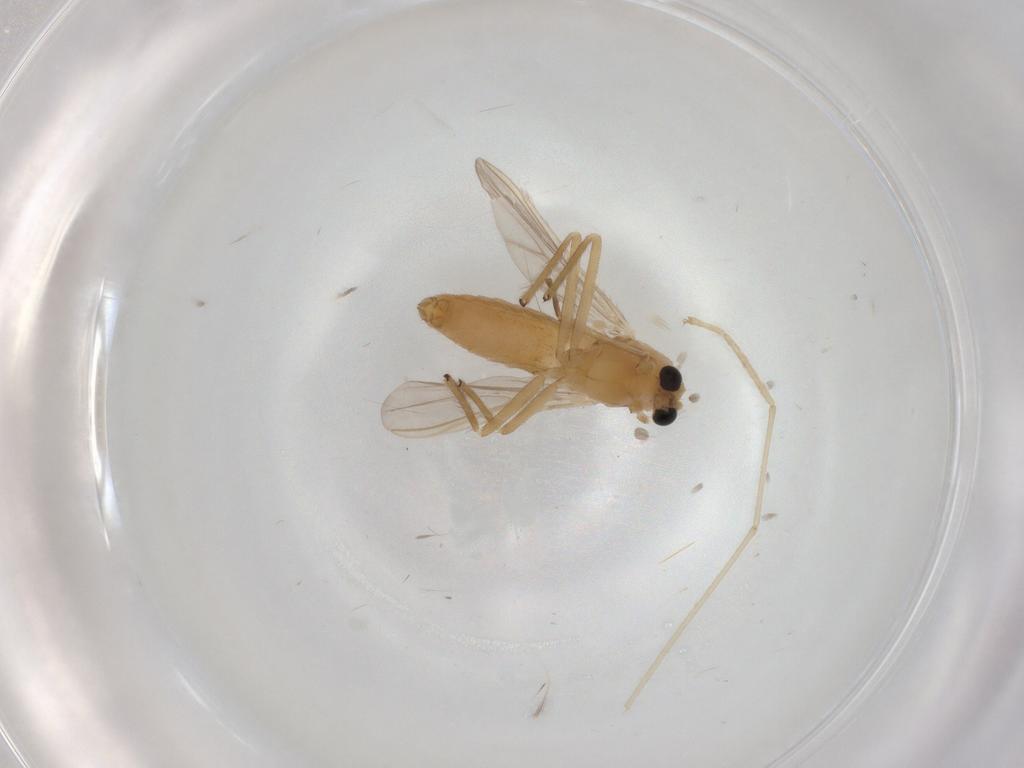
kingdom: Animalia
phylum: Arthropoda
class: Insecta
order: Diptera
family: Chironomidae
